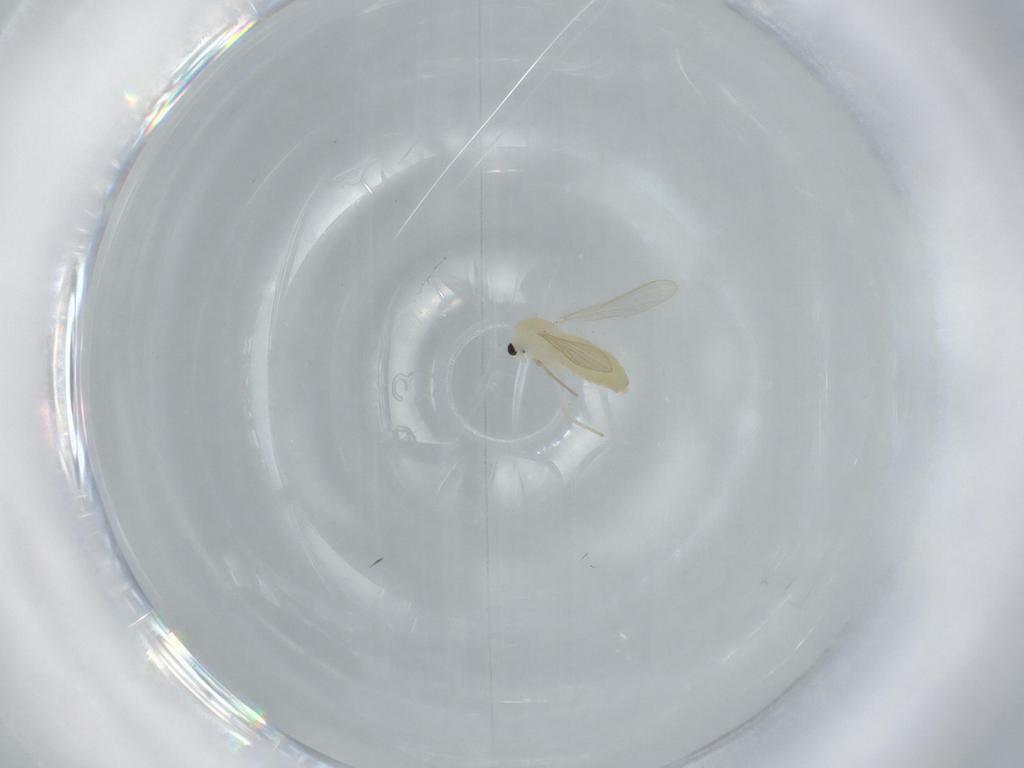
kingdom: Animalia
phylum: Arthropoda
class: Insecta
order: Diptera
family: Chironomidae
